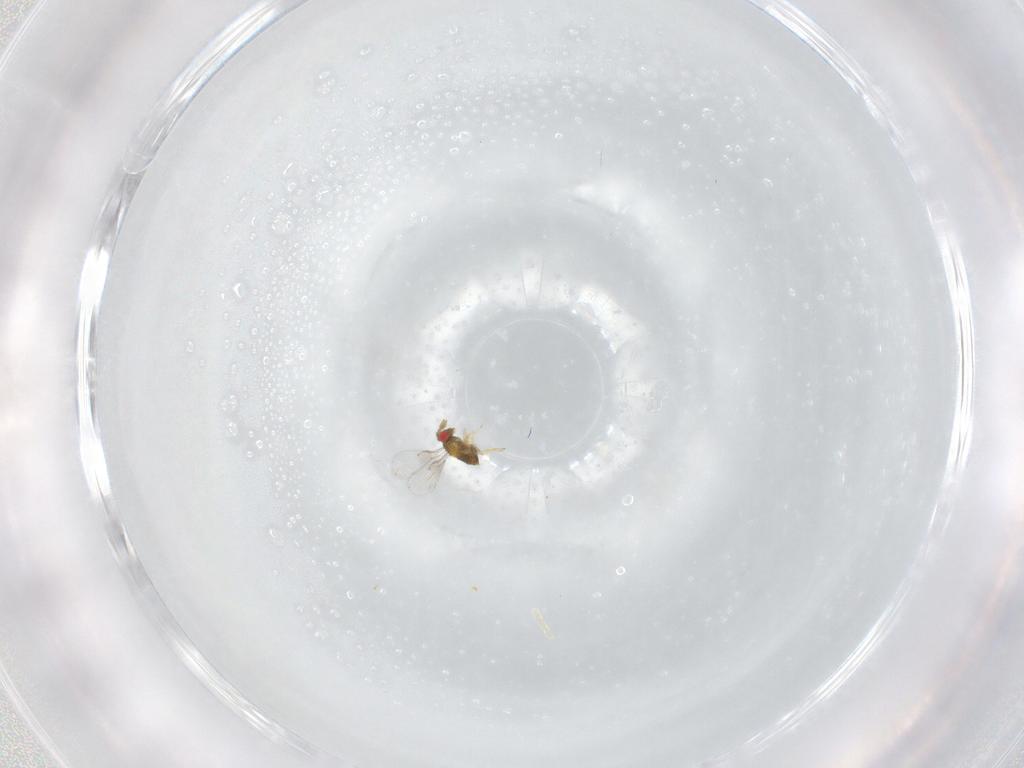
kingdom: Animalia
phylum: Arthropoda
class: Insecta
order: Hymenoptera
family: Trichogrammatidae
